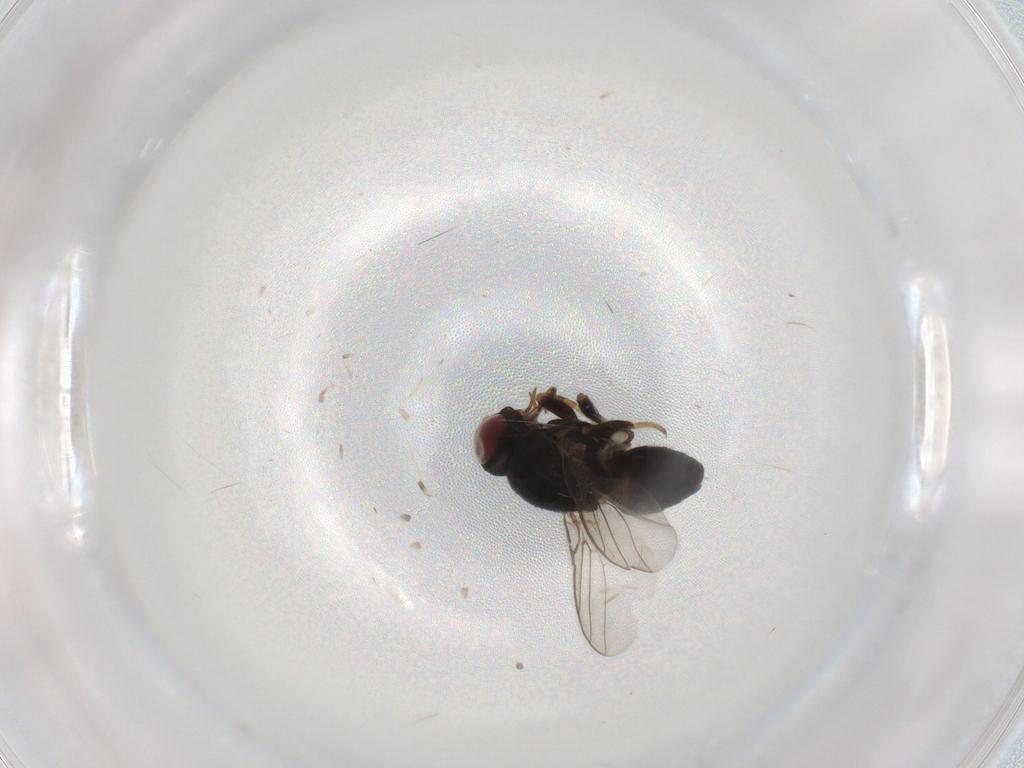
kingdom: Animalia
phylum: Arthropoda
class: Insecta
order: Diptera
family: Chloropidae
